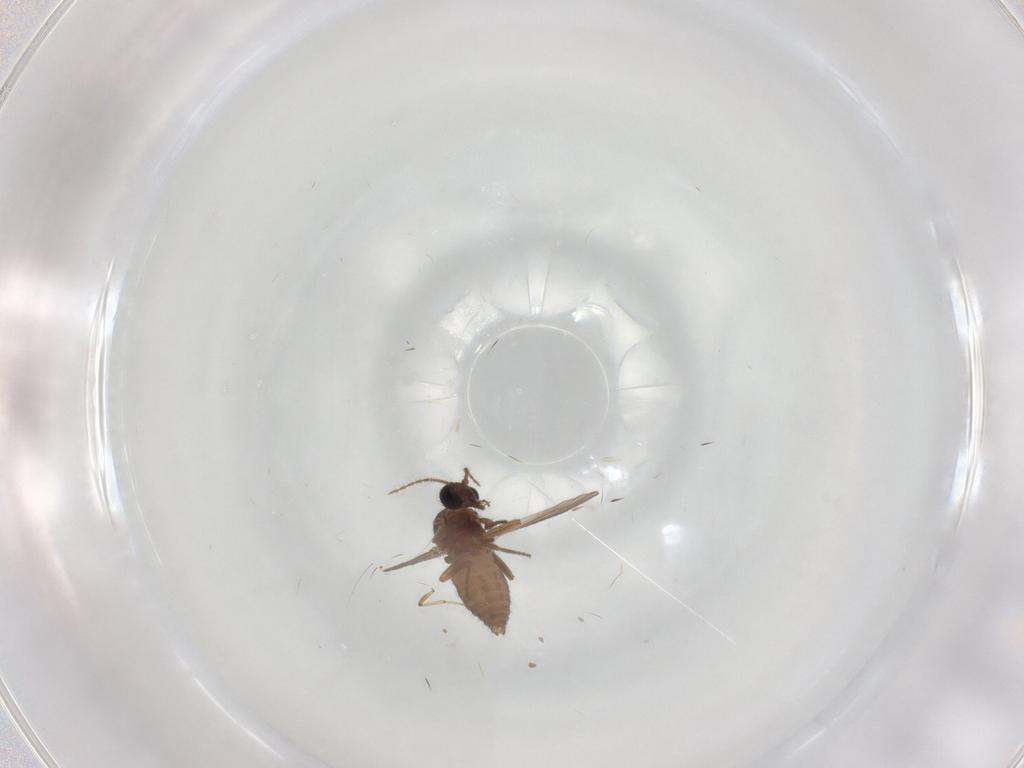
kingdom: Animalia
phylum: Arthropoda
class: Insecta
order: Diptera
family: Ceratopogonidae
